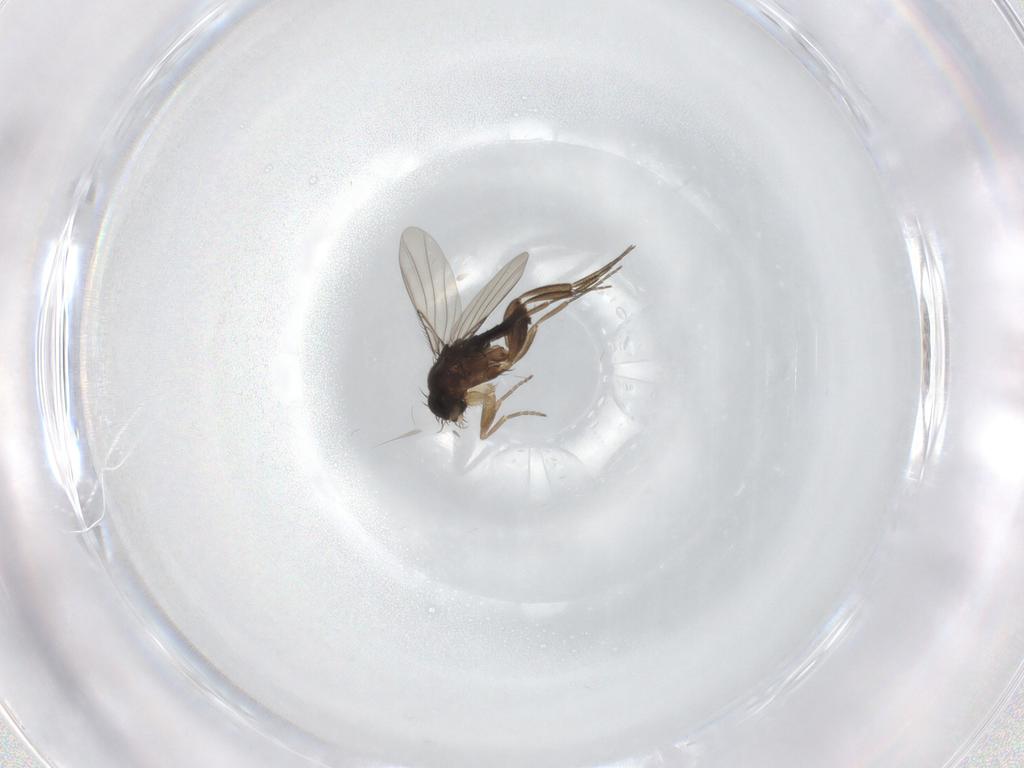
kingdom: Animalia
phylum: Arthropoda
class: Insecta
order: Diptera
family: Phoridae
